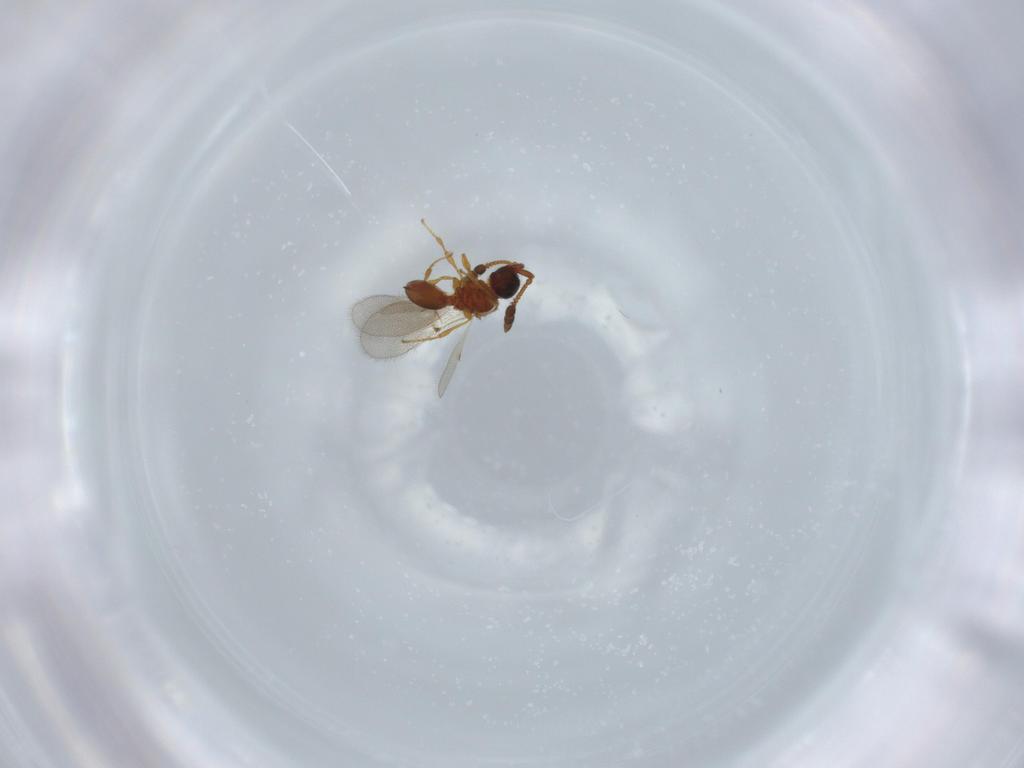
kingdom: Animalia
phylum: Arthropoda
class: Insecta
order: Hymenoptera
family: Diapriidae
